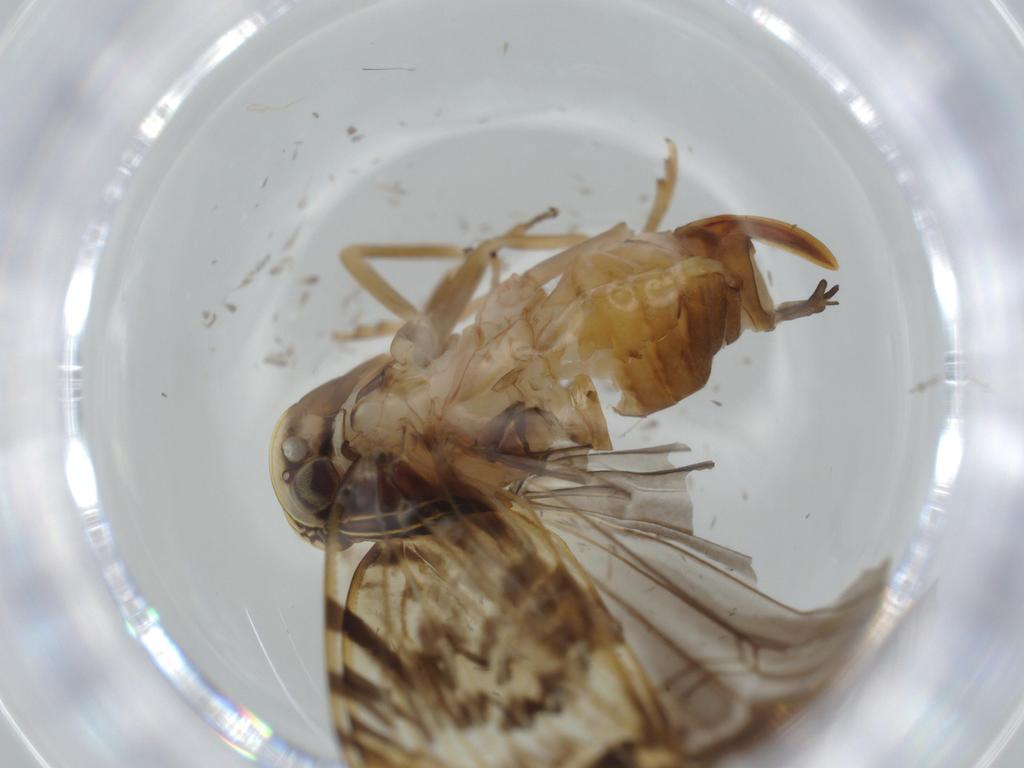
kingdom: Animalia
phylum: Arthropoda
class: Insecta
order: Hemiptera
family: Cixiidae
